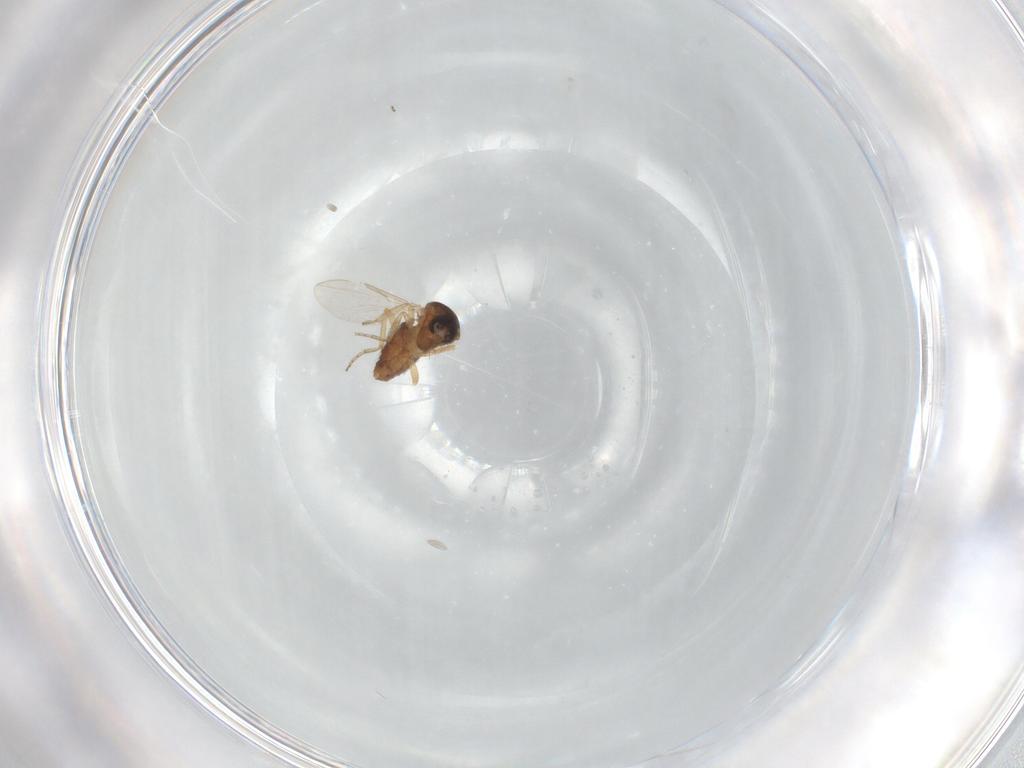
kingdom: Animalia
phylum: Arthropoda
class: Insecta
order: Diptera
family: Ceratopogonidae
